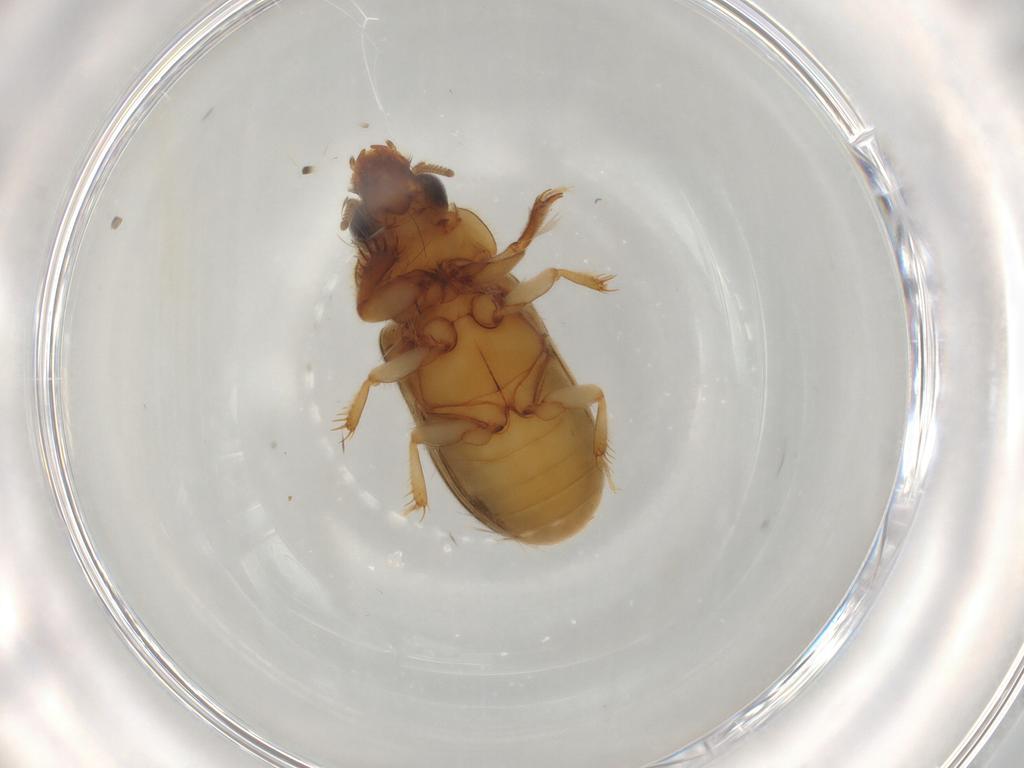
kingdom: Animalia
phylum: Arthropoda
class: Insecta
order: Coleoptera
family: Heteroceridae
